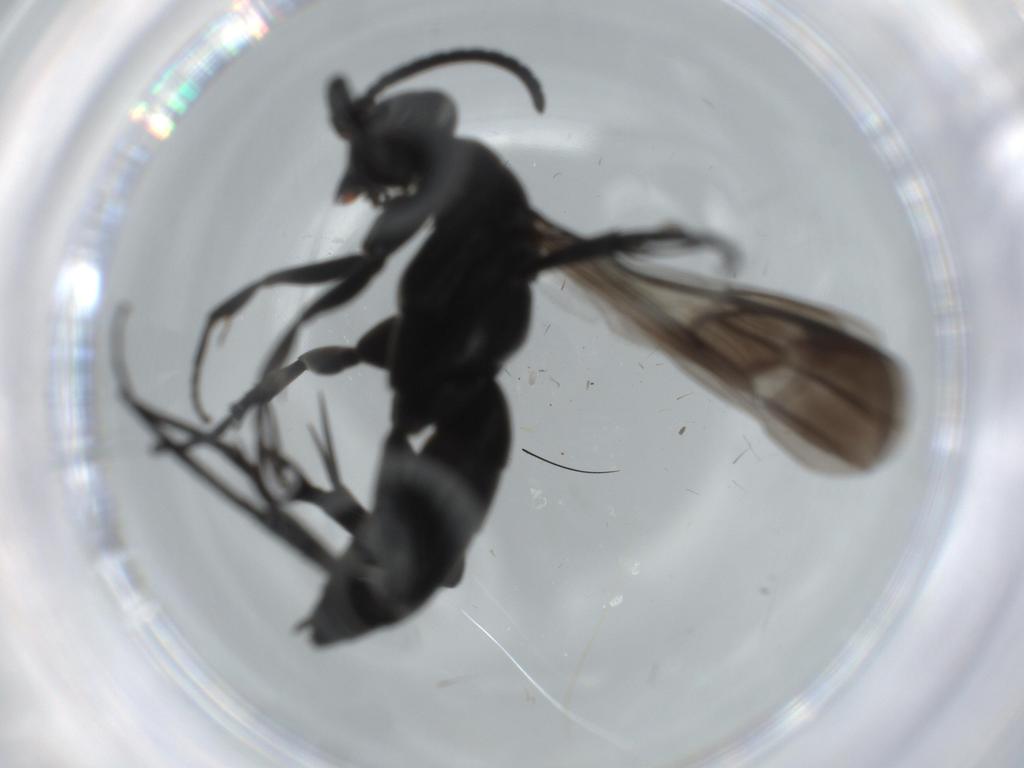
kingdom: Animalia
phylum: Arthropoda
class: Insecta
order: Hymenoptera
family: Pompilidae
